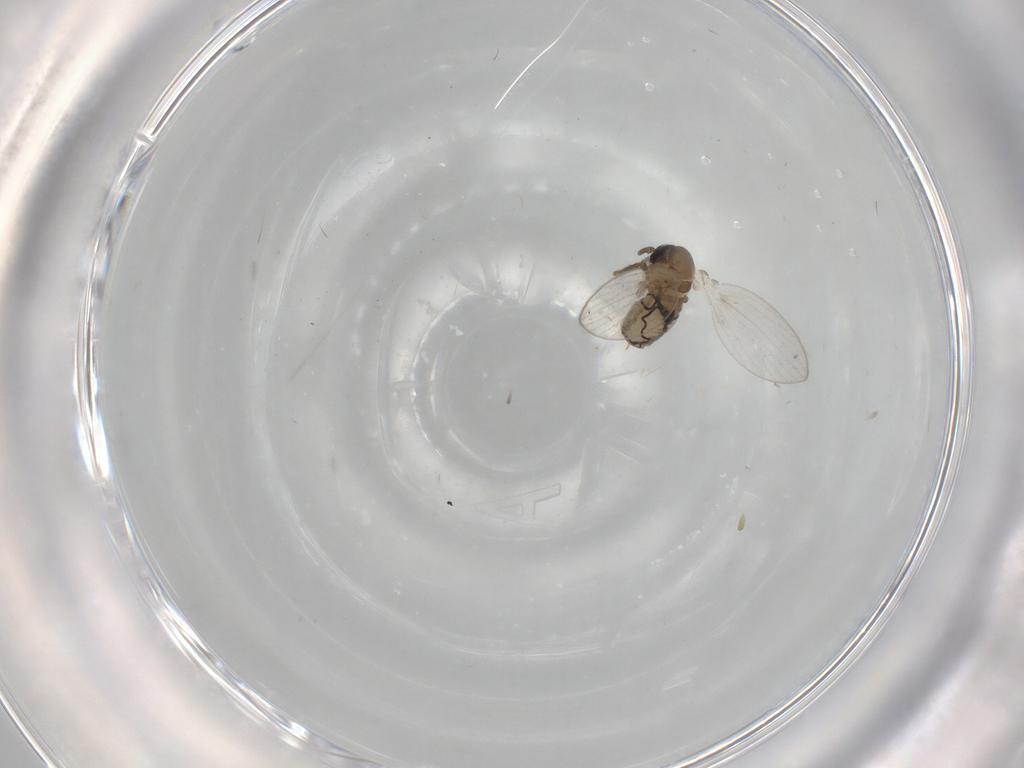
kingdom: Animalia
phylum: Arthropoda
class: Insecta
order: Diptera
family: Psychodidae
